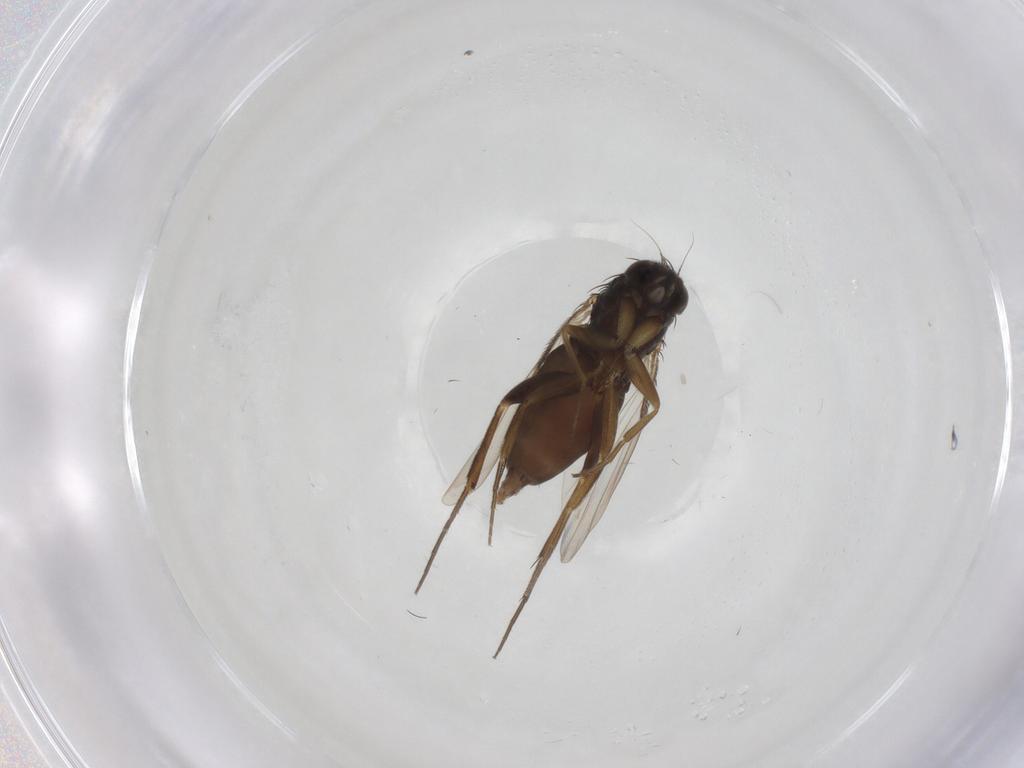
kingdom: Animalia
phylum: Arthropoda
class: Insecta
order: Diptera
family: Phoridae
